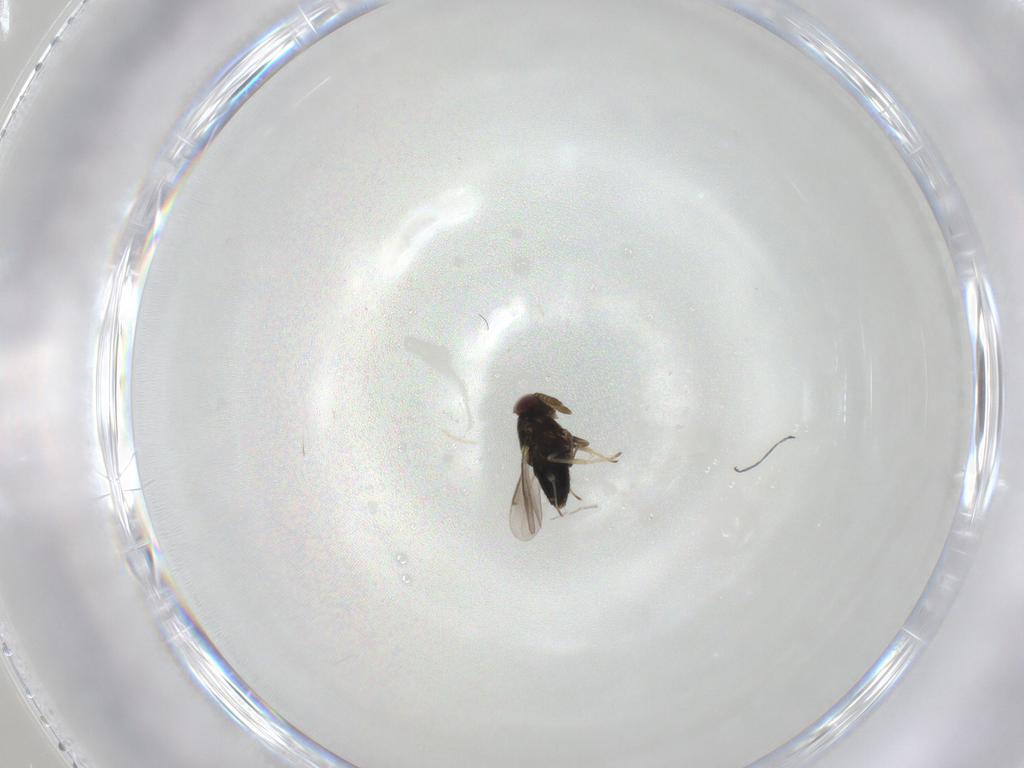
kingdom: Animalia
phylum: Arthropoda
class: Insecta
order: Hymenoptera
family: Aphelinidae
